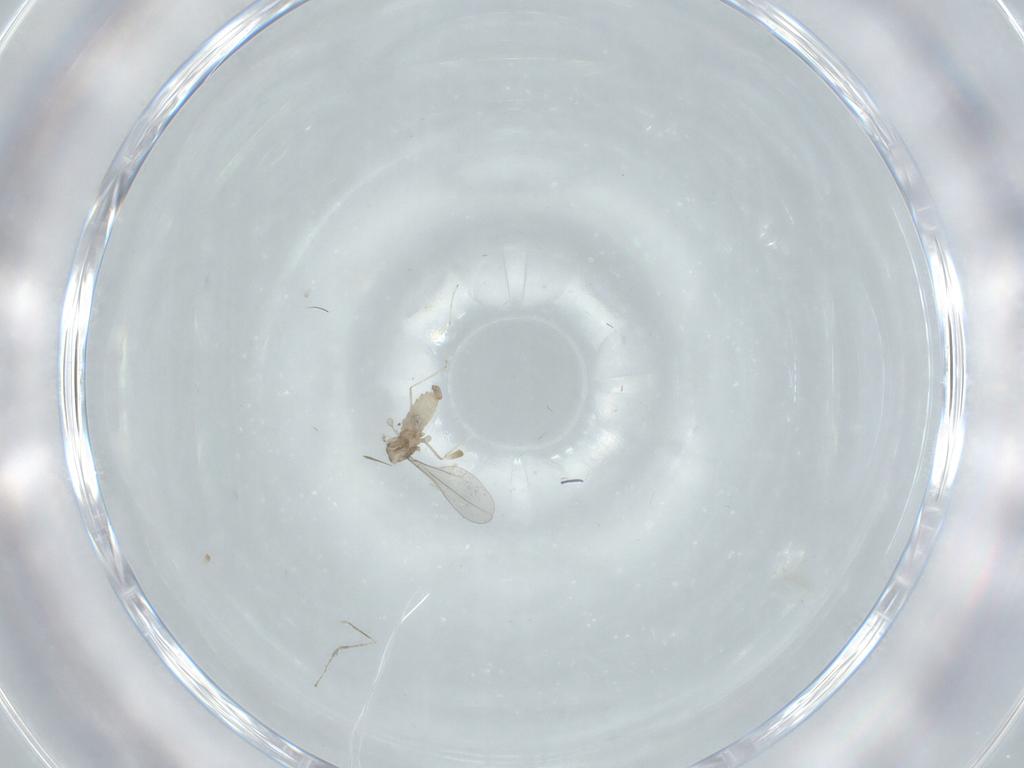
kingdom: Animalia
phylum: Arthropoda
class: Insecta
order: Diptera
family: Cecidomyiidae
